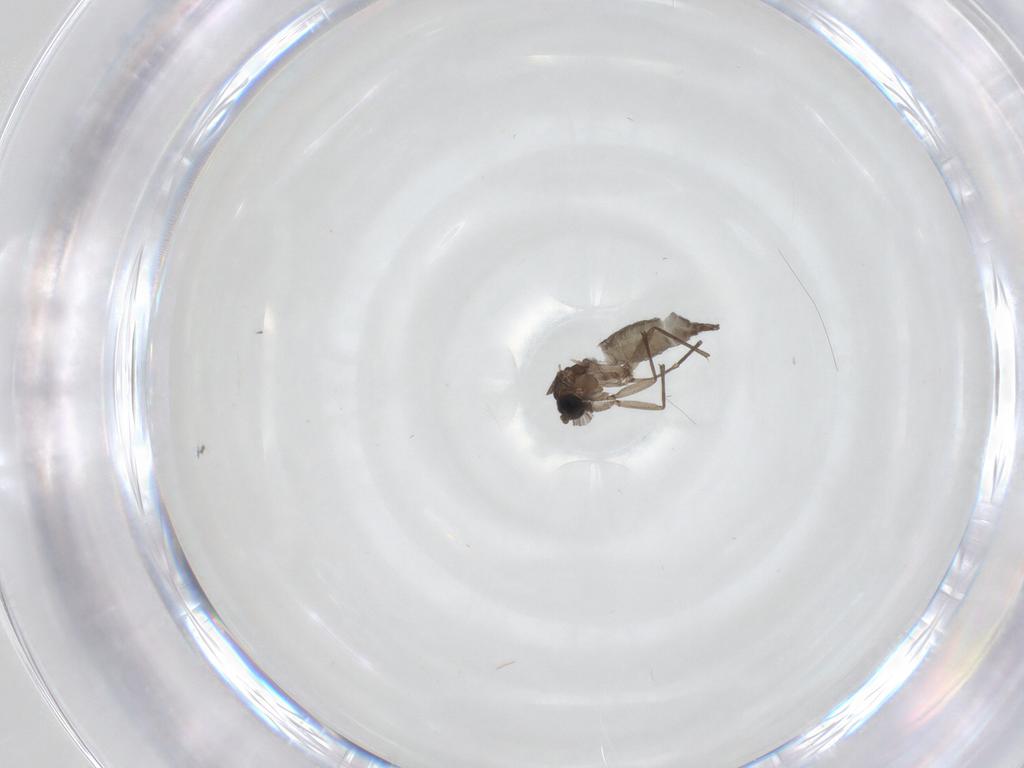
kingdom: Animalia
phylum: Arthropoda
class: Insecta
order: Diptera
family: Sciaridae
